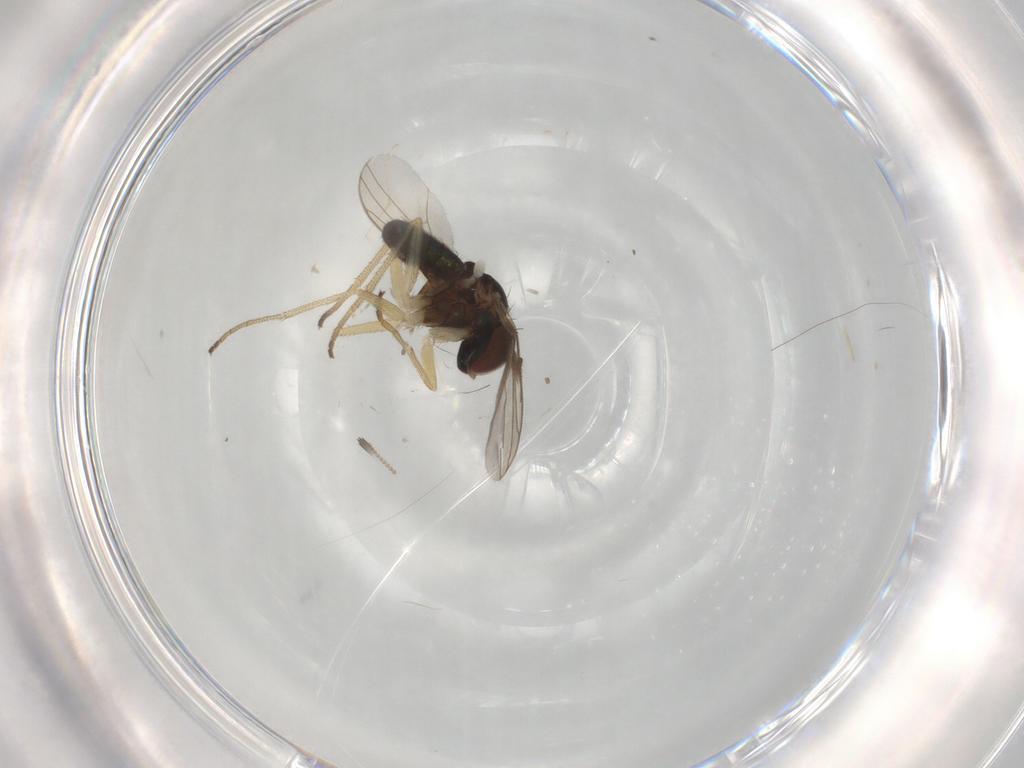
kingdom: Animalia
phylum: Arthropoda
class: Insecta
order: Diptera
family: Dolichopodidae
